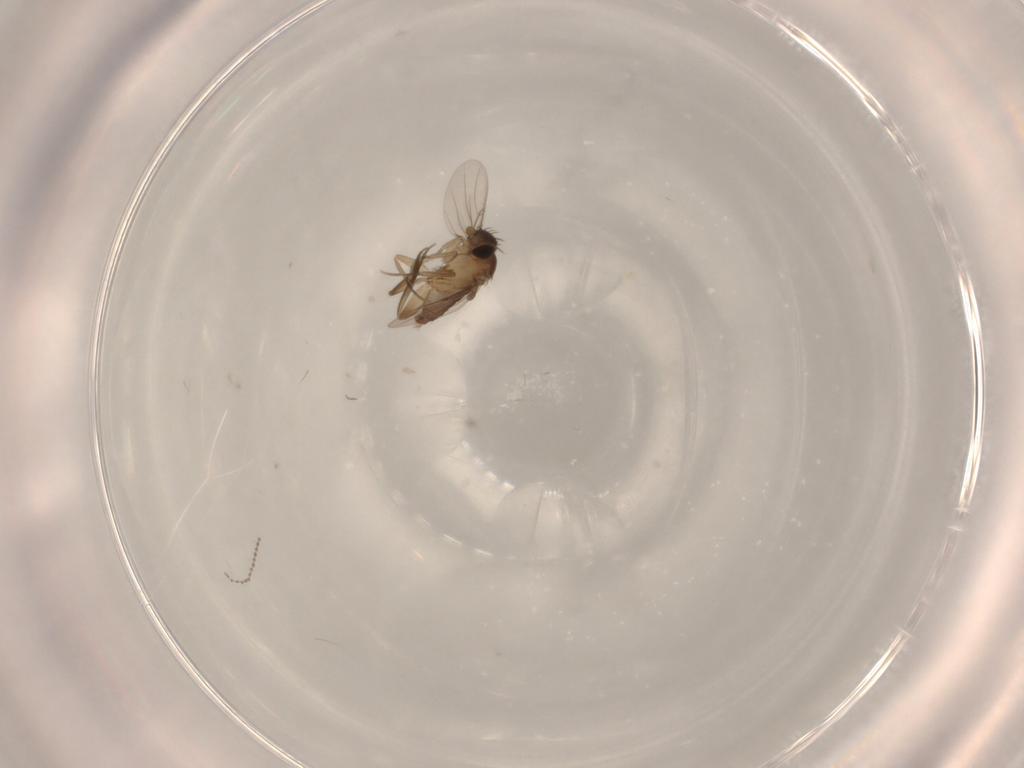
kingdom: Animalia
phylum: Arthropoda
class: Insecta
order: Diptera
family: Cecidomyiidae
